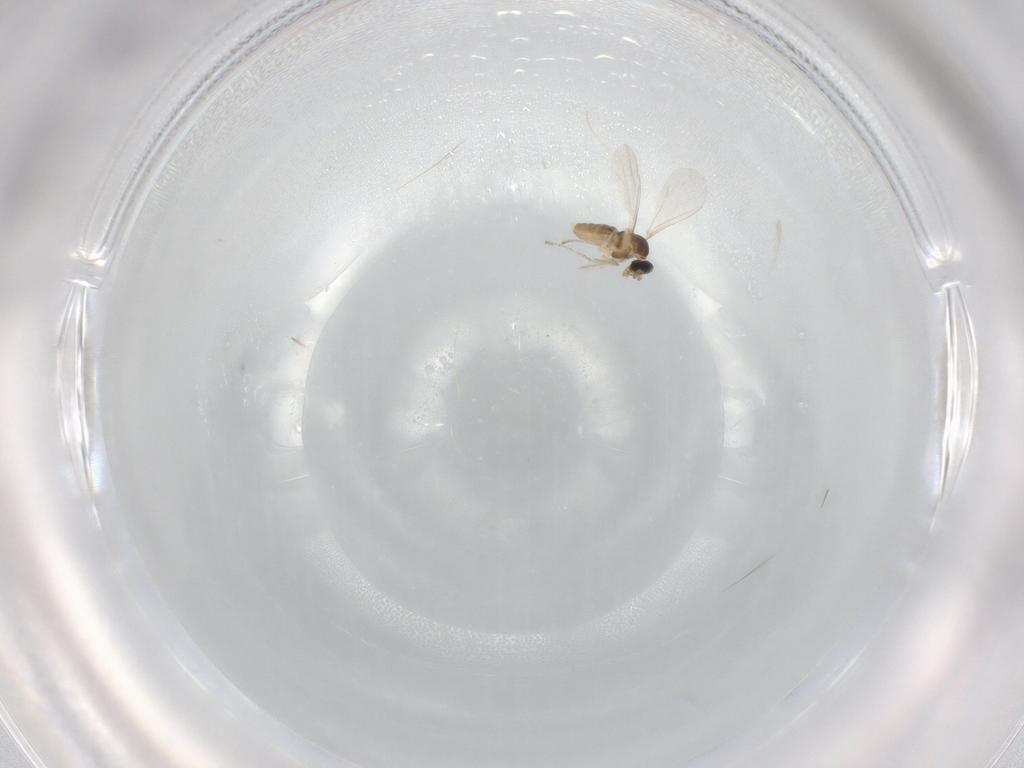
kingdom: Animalia
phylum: Arthropoda
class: Insecta
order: Diptera
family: Cecidomyiidae
